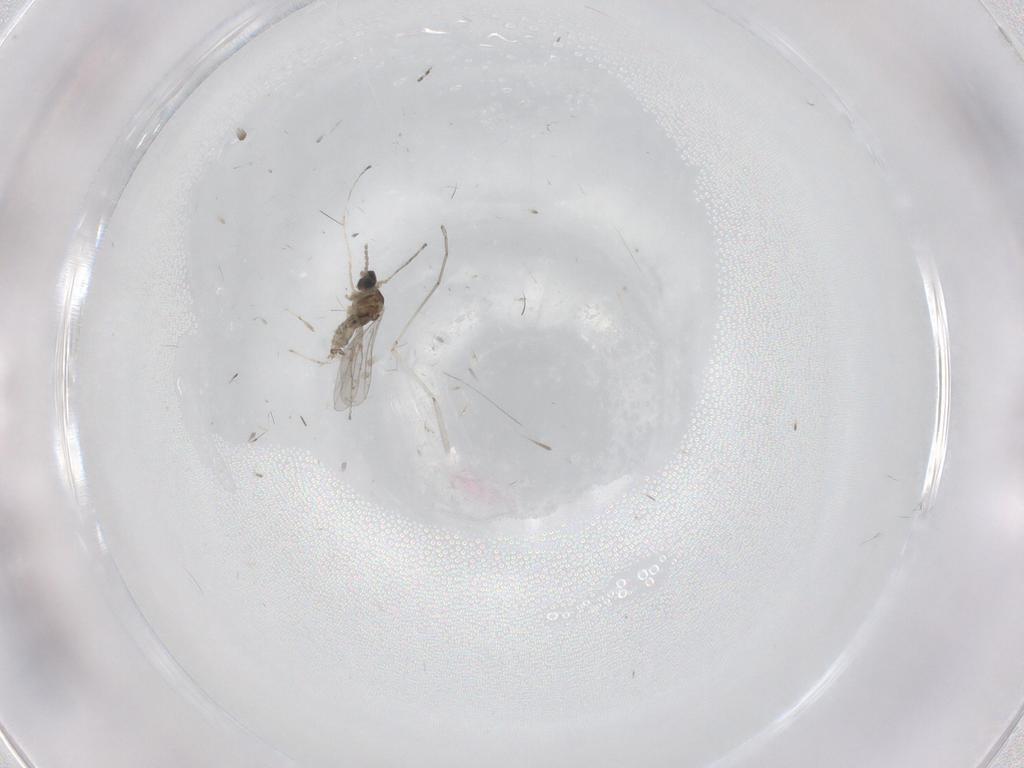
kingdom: Animalia
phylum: Arthropoda
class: Insecta
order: Diptera
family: Cecidomyiidae
